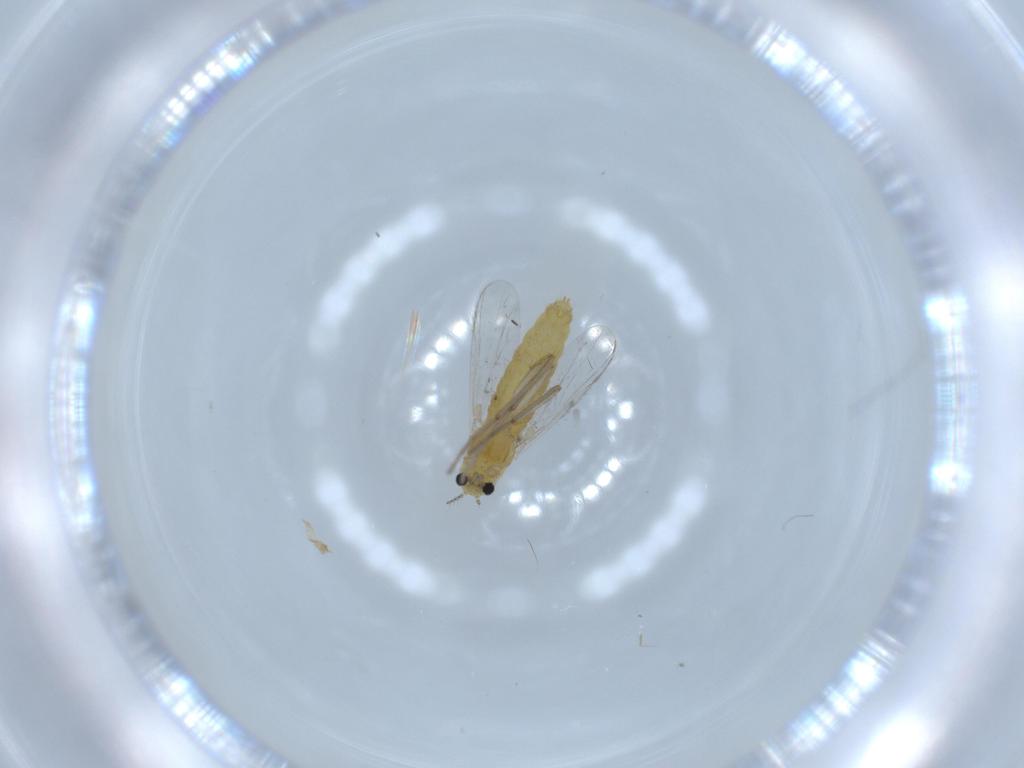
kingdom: Animalia
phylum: Arthropoda
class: Insecta
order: Diptera
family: Chironomidae
